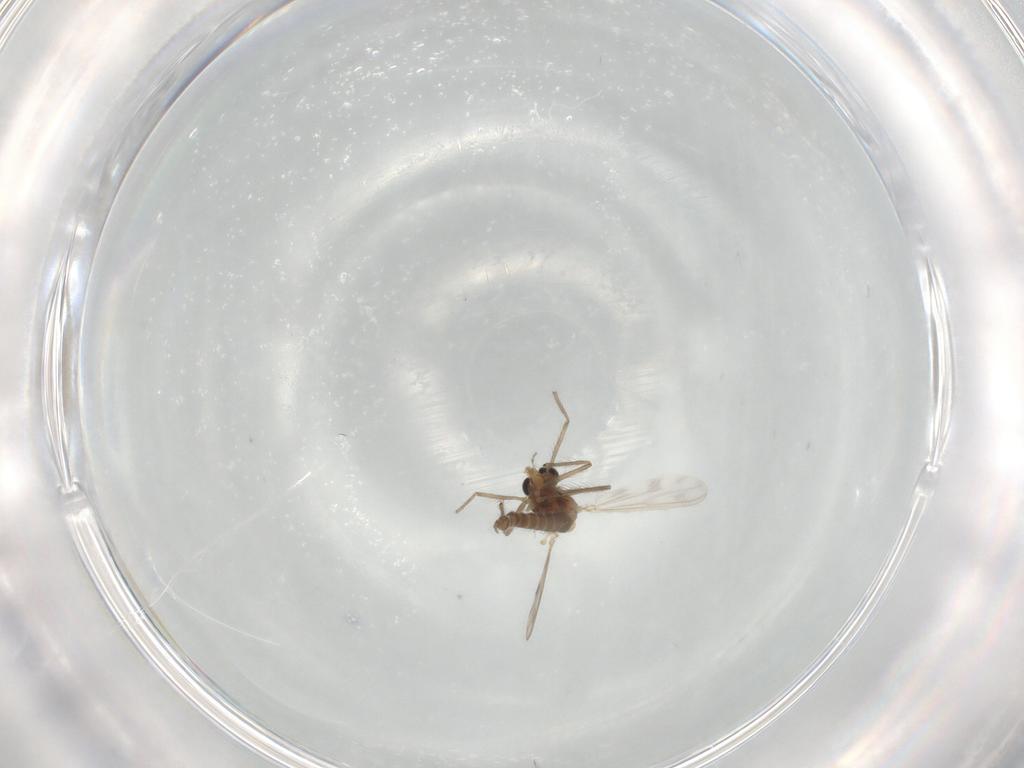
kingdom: Animalia
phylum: Arthropoda
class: Insecta
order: Diptera
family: Chironomidae
